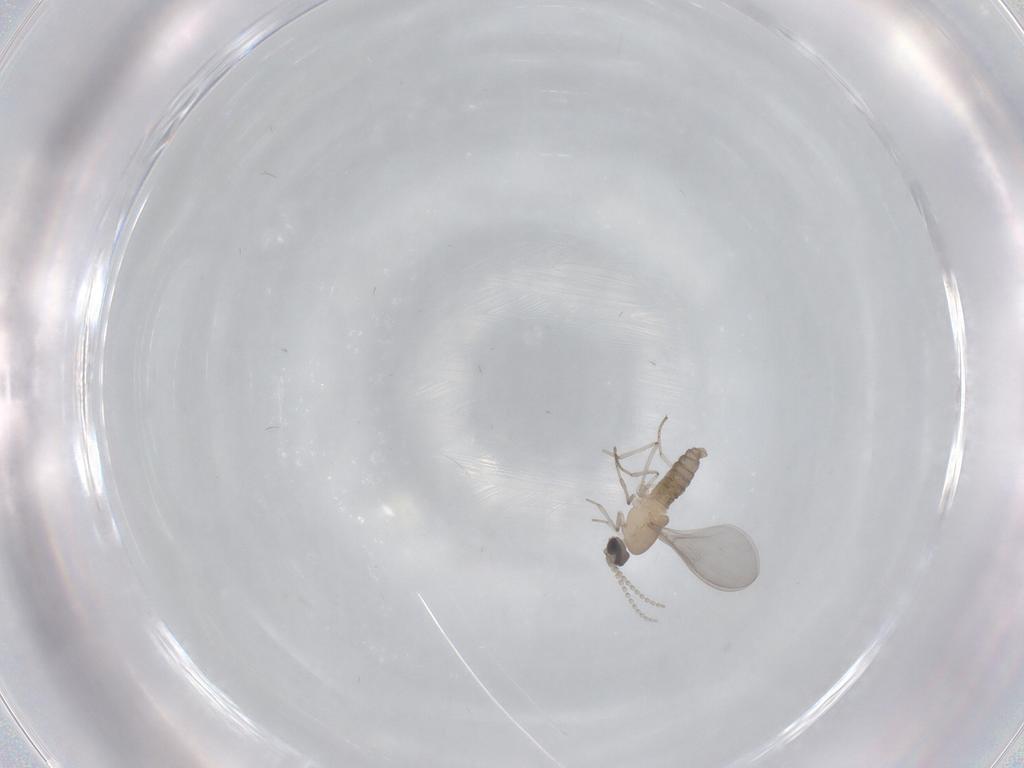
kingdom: Animalia
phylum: Arthropoda
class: Insecta
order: Diptera
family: Cecidomyiidae
